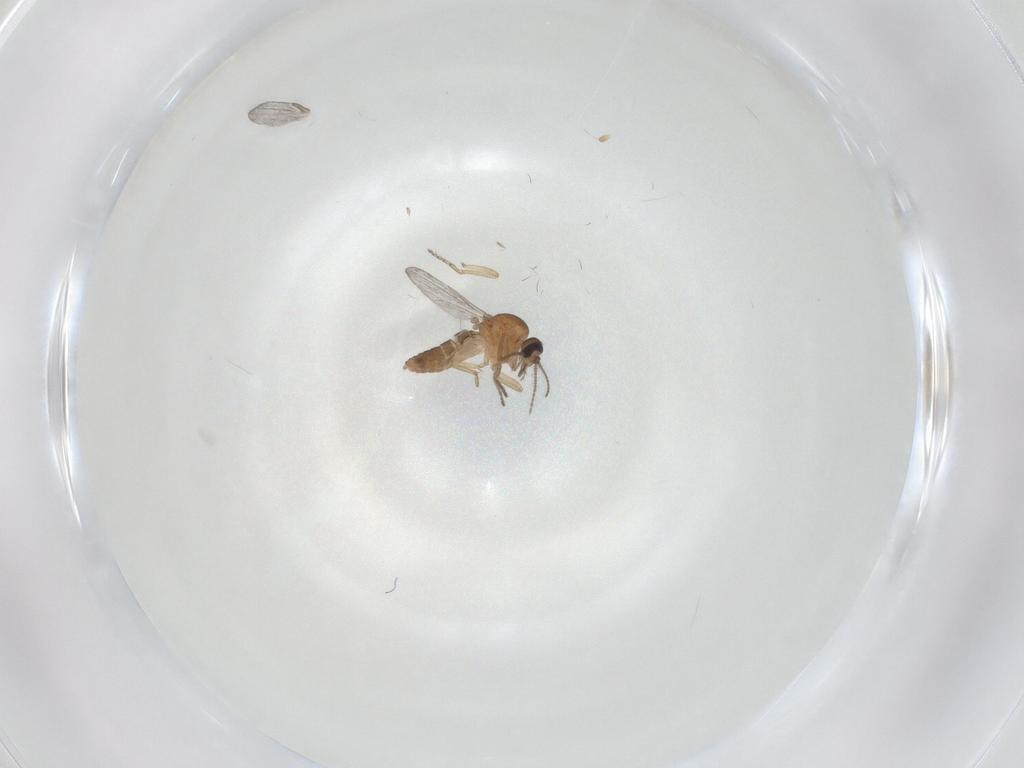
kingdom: Animalia
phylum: Arthropoda
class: Insecta
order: Diptera
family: Ceratopogonidae
